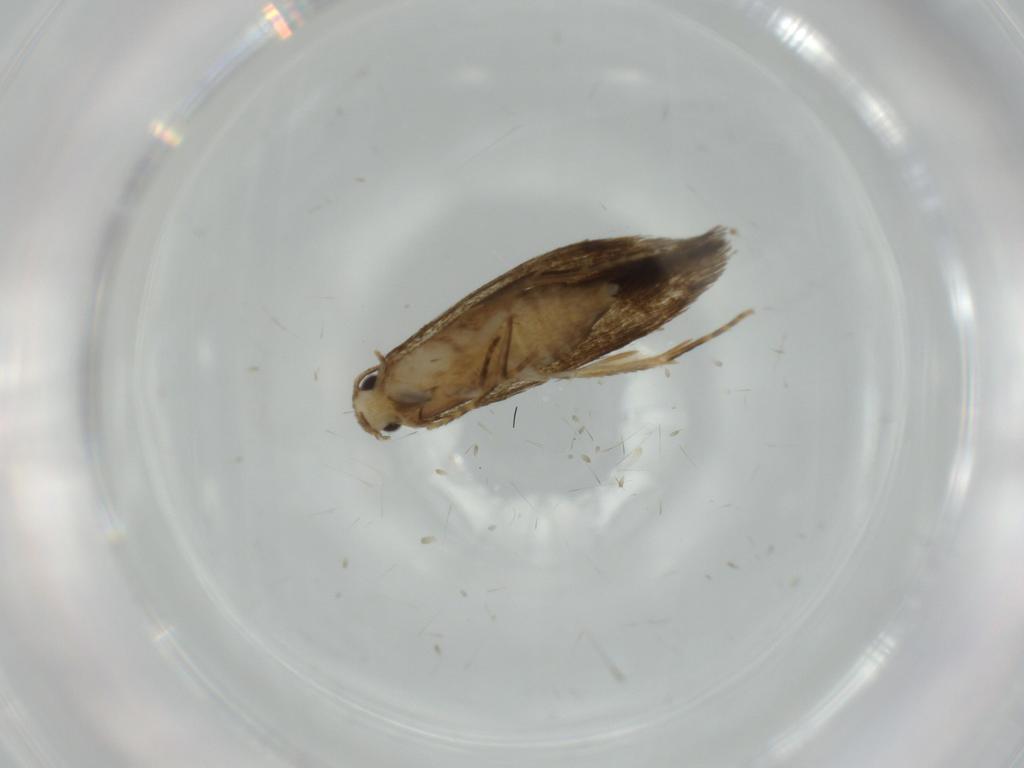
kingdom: Animalia
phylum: Arthropoda
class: Insecta
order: Lepidoptera
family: Tineidae
